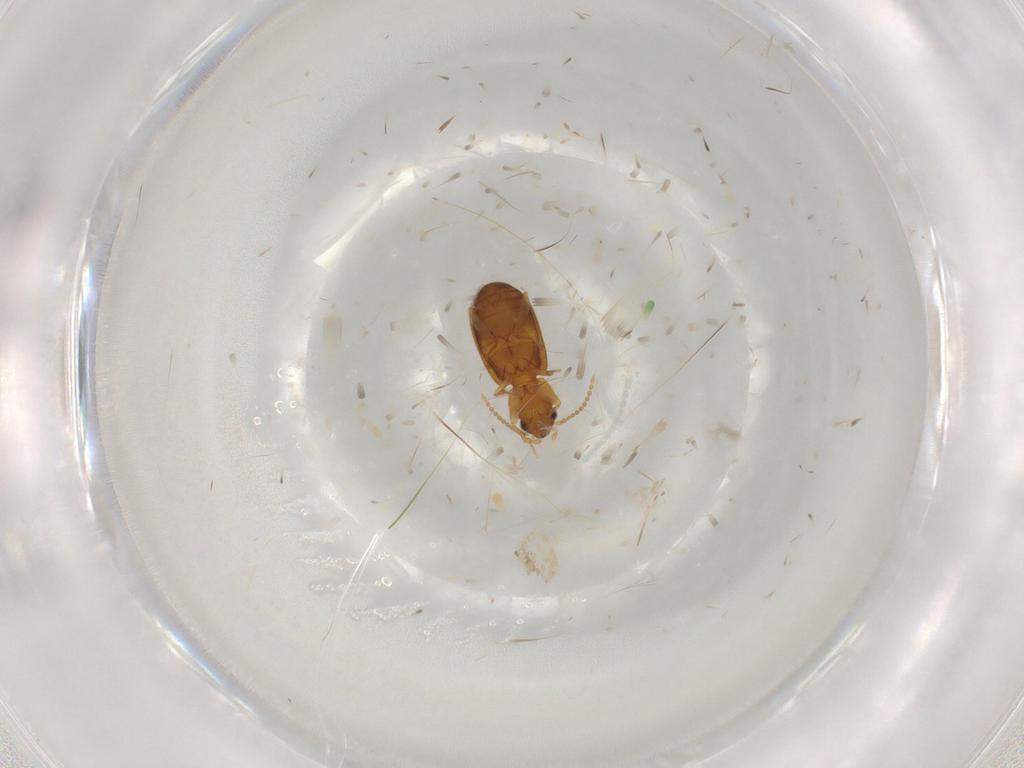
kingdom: Animalia
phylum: Arthropoda
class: Insecta
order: Coleoptera
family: Carabidae
